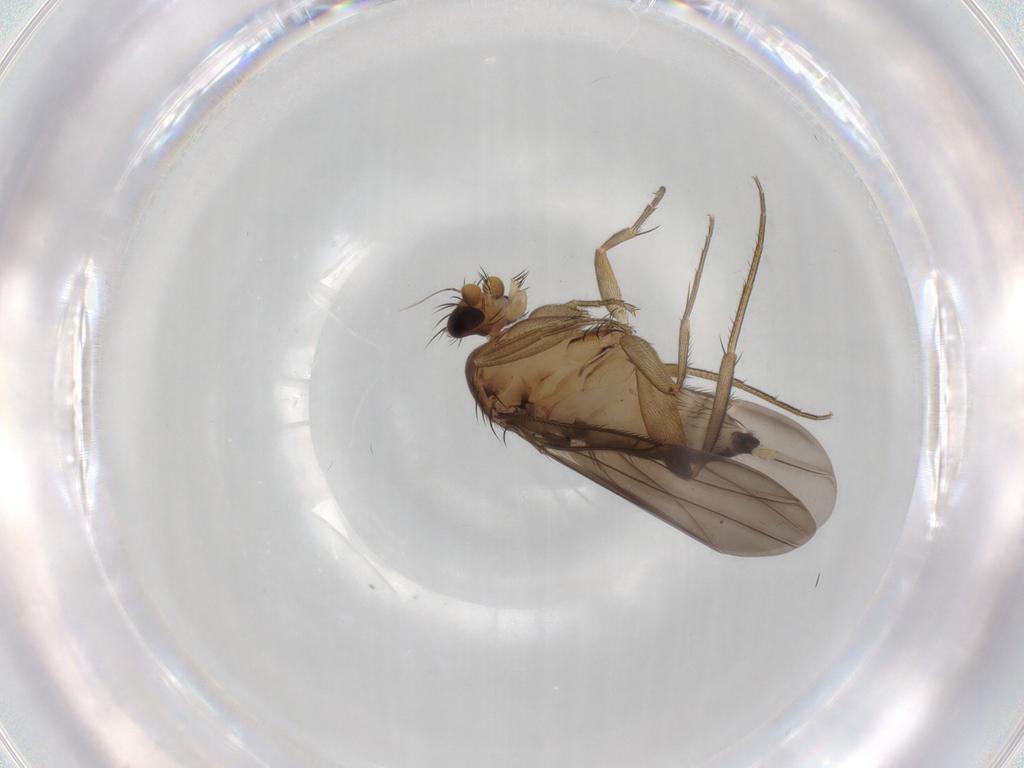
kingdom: Animalia
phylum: Arthropoda
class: Insecta
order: Diptera
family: Phoridae
